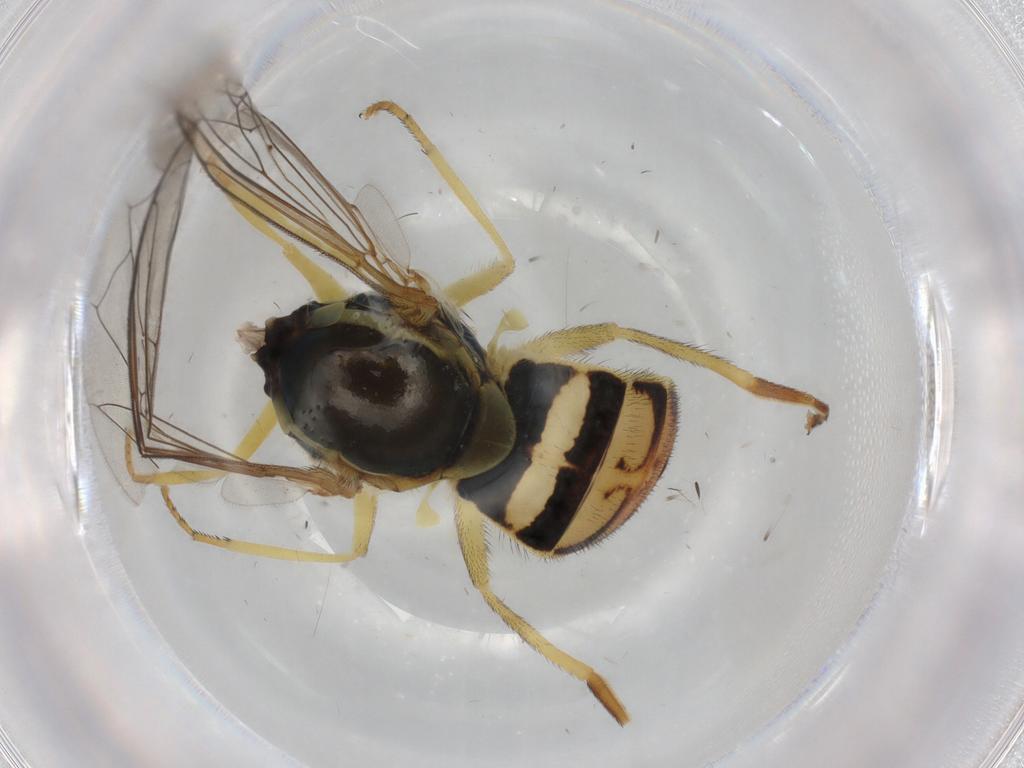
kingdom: Animalia
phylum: Arthropoda
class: Insecta
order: Diptera
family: Syrphidae
